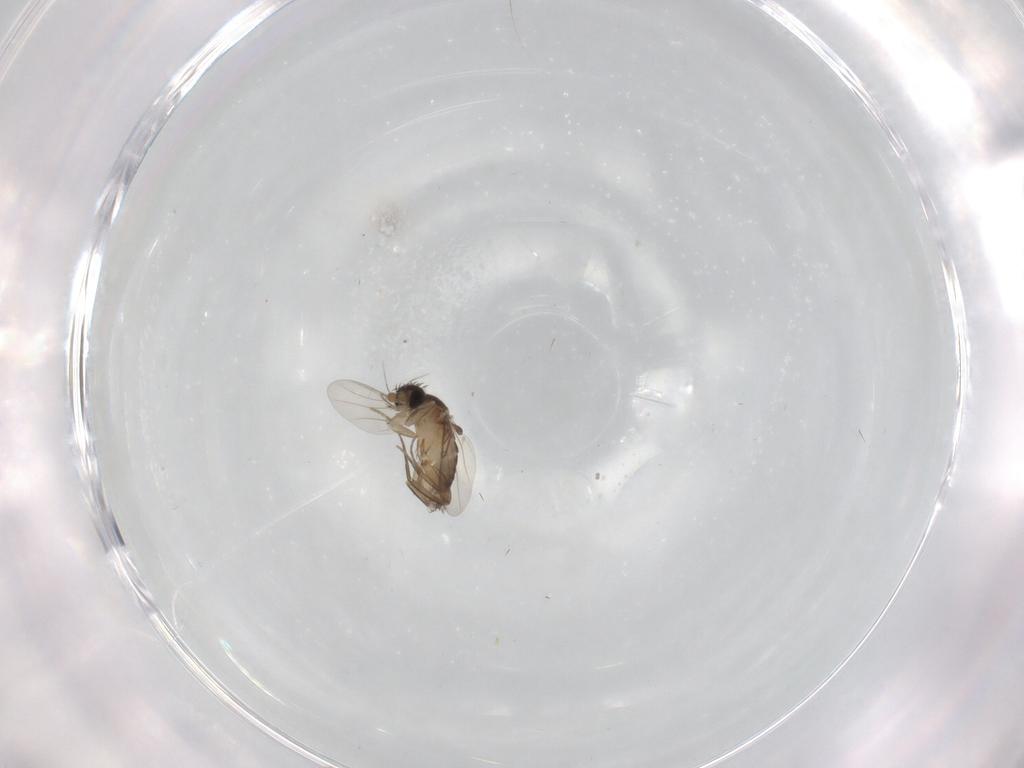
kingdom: Animalia
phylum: Arthropoda
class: Insecta
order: Diptera
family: Phoridae
